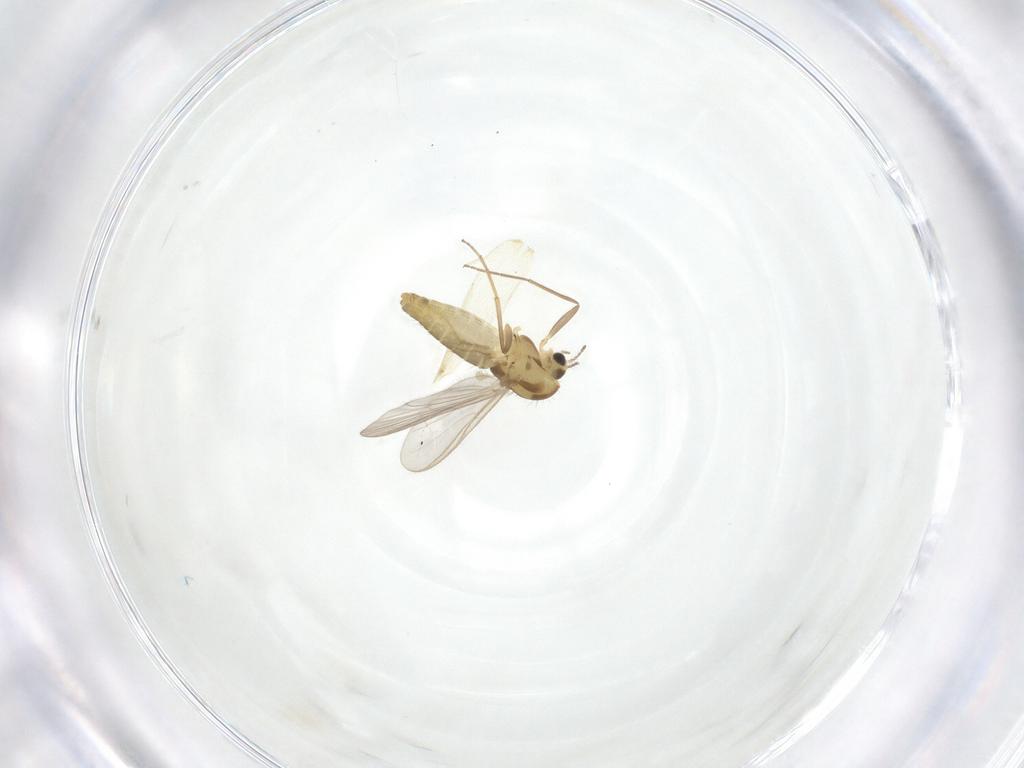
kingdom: Animalia
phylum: Arthropoda
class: Insecta
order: Diptera
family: Chironomidae
